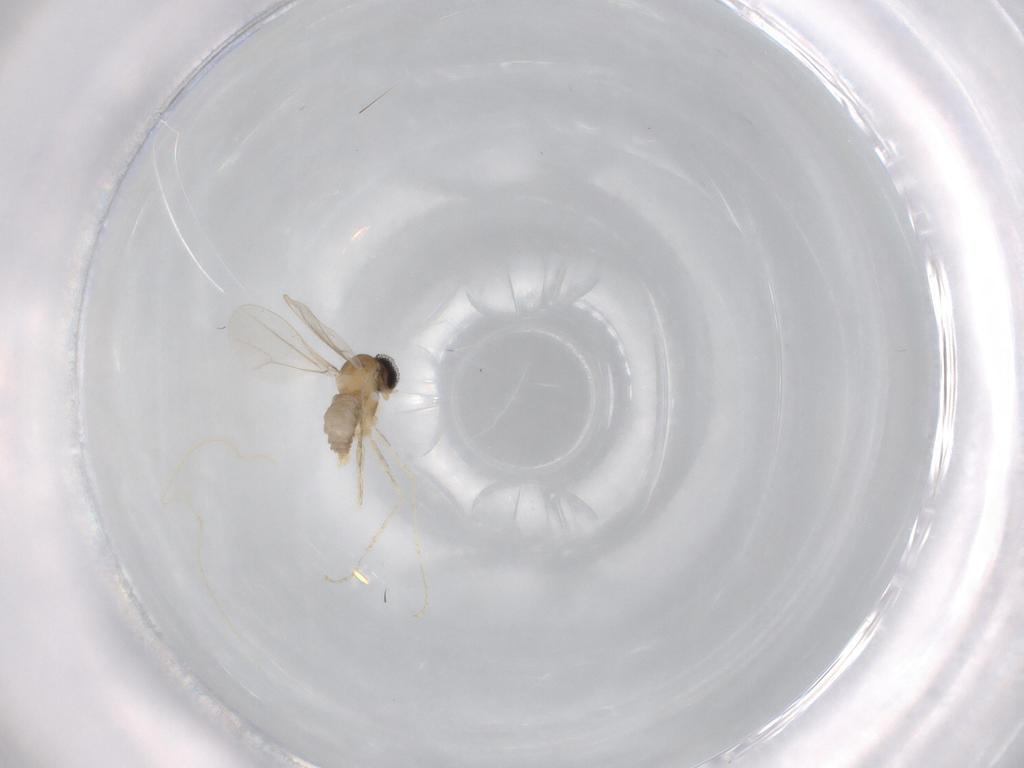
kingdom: Animalia
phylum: Arthropoda
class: Insecta
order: Diptera
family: Cecidomyiidae
